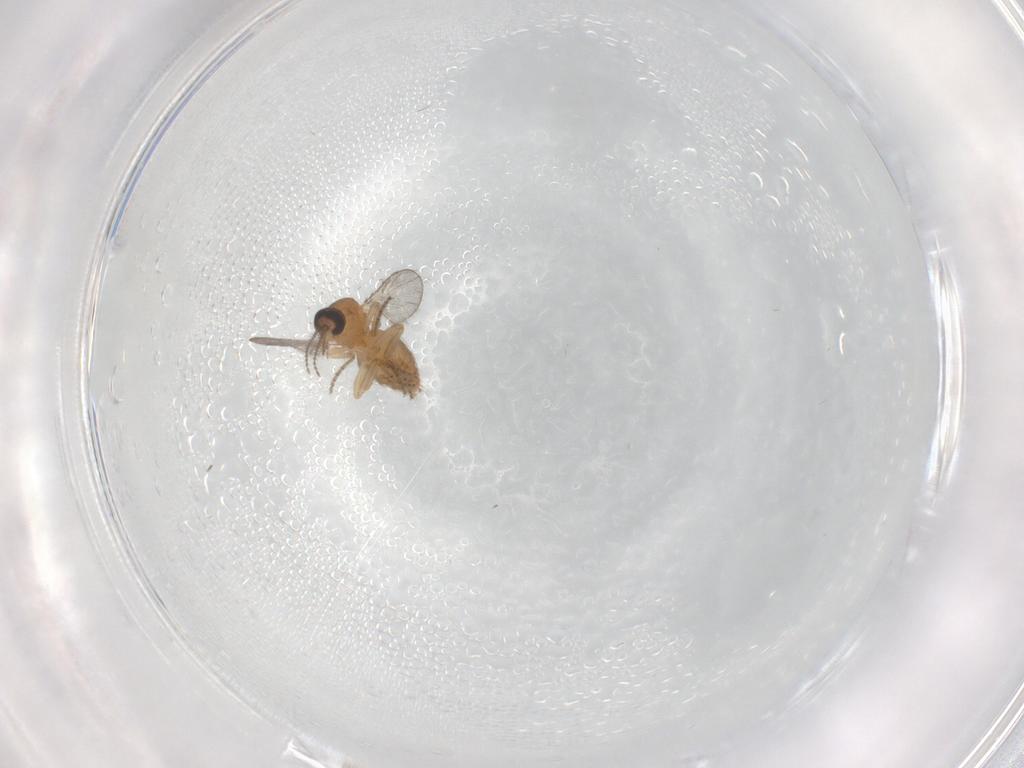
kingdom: Animalia
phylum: Arthropoda
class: Insecta
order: Diptera
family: Ceratopogonidae
